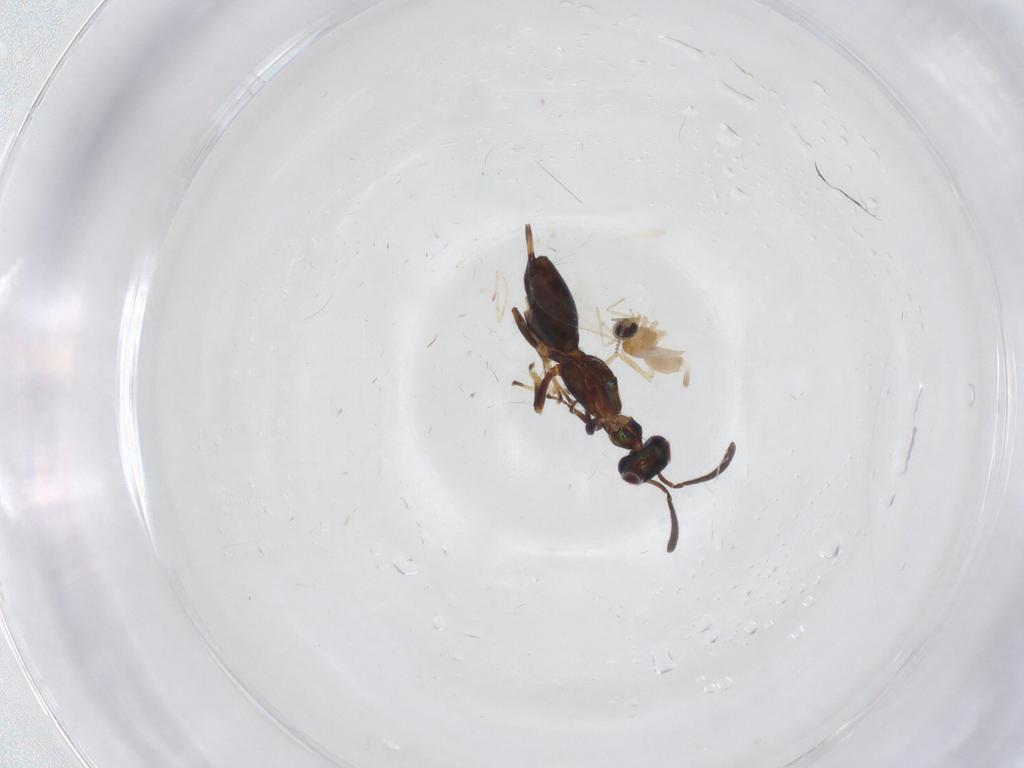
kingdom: Animalia
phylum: Arthropoda
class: Insecta
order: Diptera
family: Cecidomyiidae
